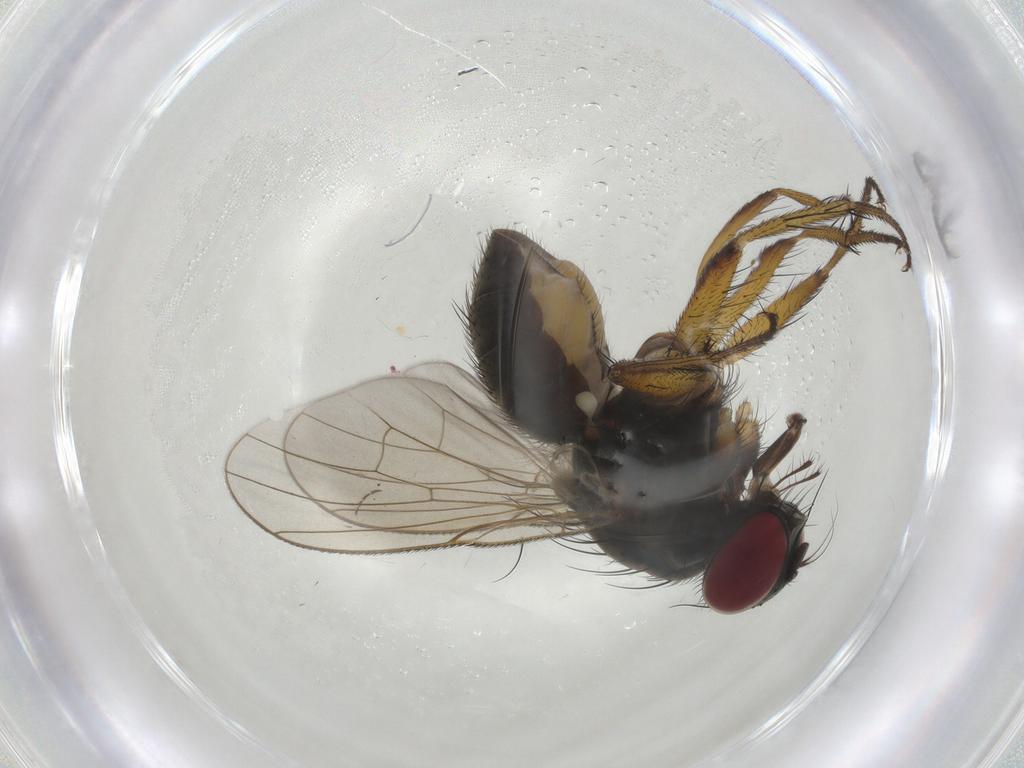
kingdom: Animalia
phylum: Arthropoda
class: Insecta
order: Diptera
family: Muscidae
